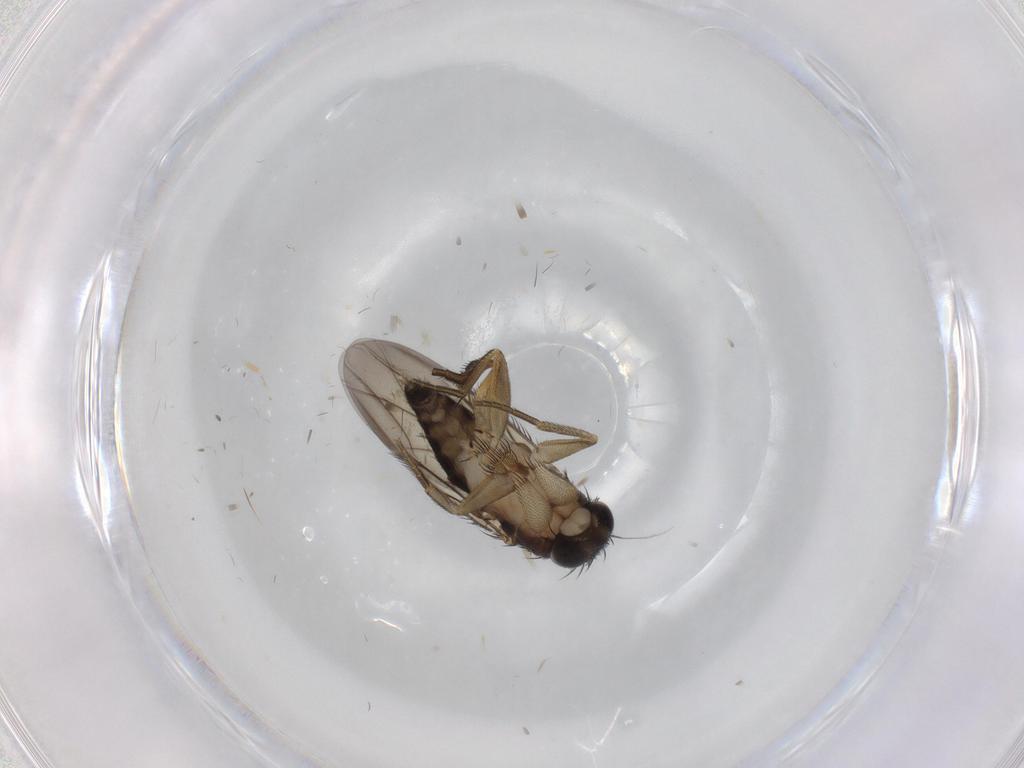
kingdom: Animalia
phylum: Arthropoda
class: Insecta
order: Diptera
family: Phoridae
